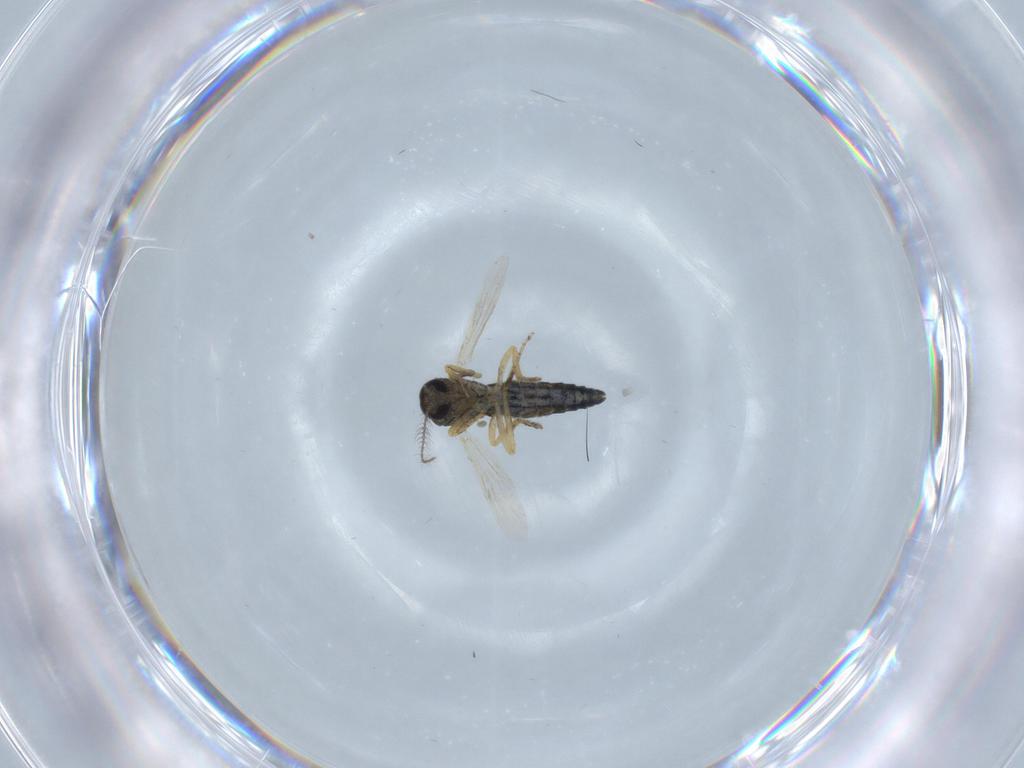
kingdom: Animalia
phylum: Arthropoda
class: Insecta
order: Diptera
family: Ceratopogonidae
